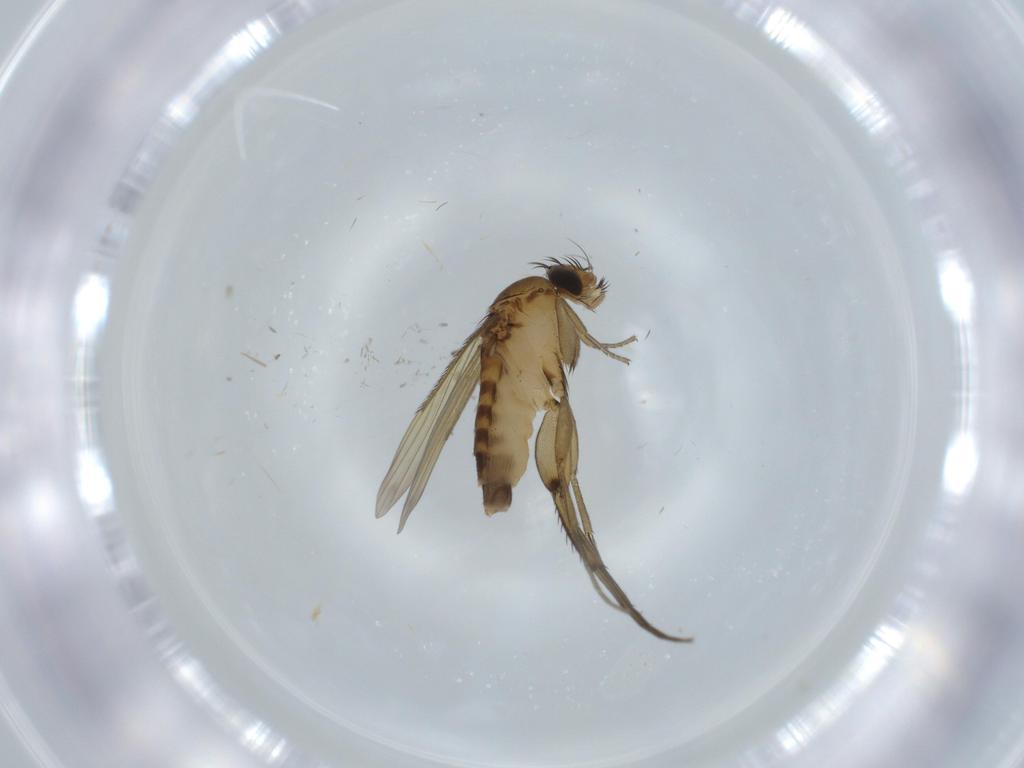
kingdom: Animalia
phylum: Arthropoda
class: Insecta
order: Diptera
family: Sciaridae
